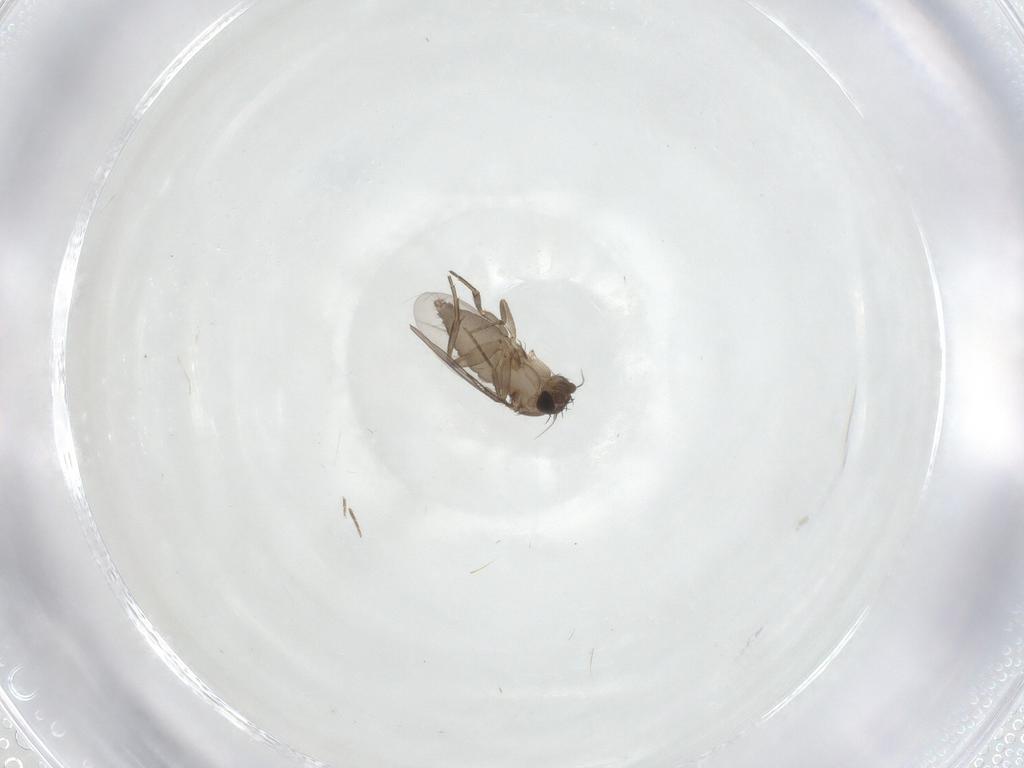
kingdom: Animalia
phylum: Arthropoda
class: Insecta
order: Diptera
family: Phoridae
